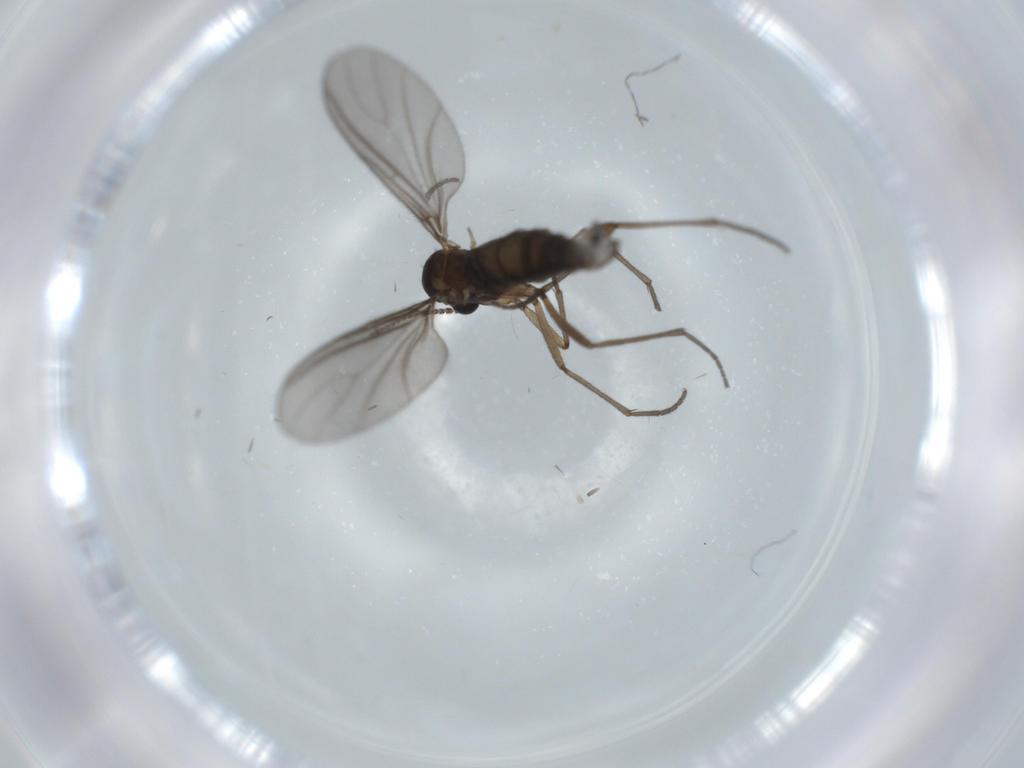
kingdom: Animalia
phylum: Arthropoda
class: Insecta
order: Diptera
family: Sciaridae
